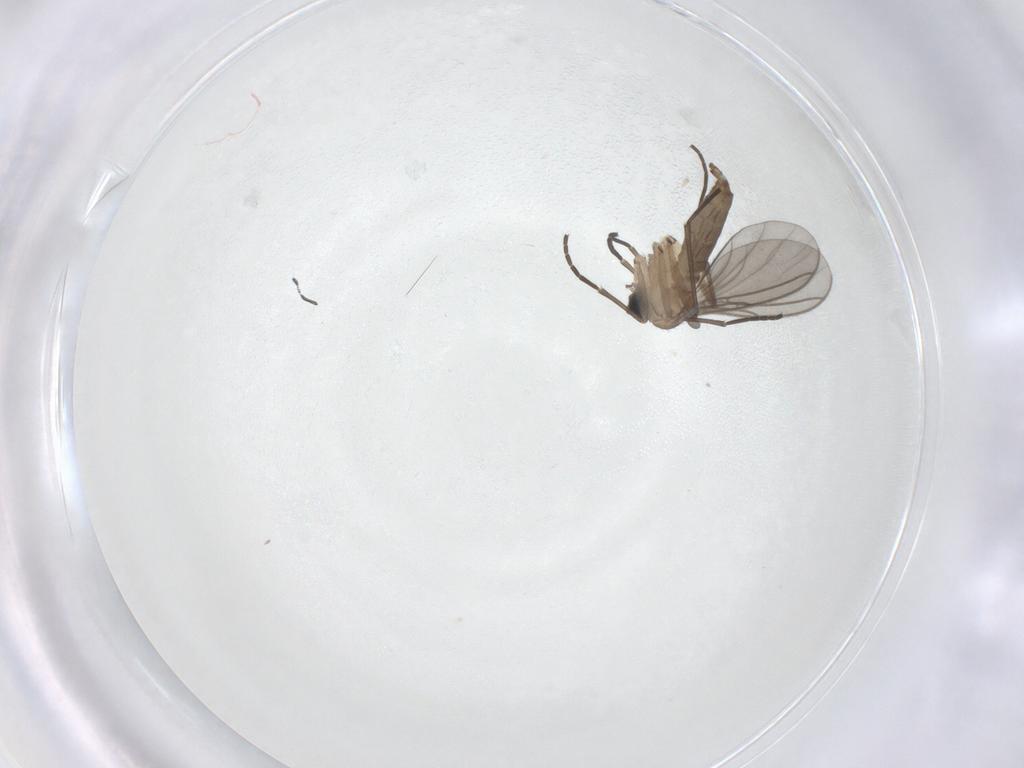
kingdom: Animalia
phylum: Arthropoda
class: Insecta
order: Diptera
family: Sciaridae
